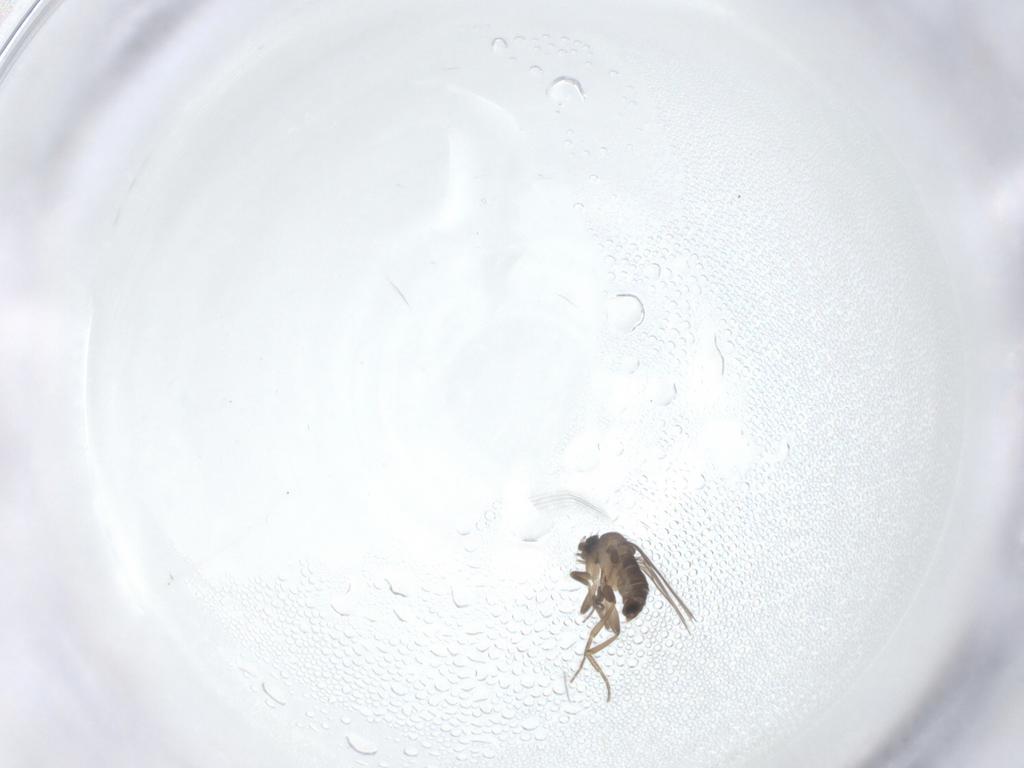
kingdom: Animalia
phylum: Arthropoda
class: Insecta
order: Diptera
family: Phoridae
